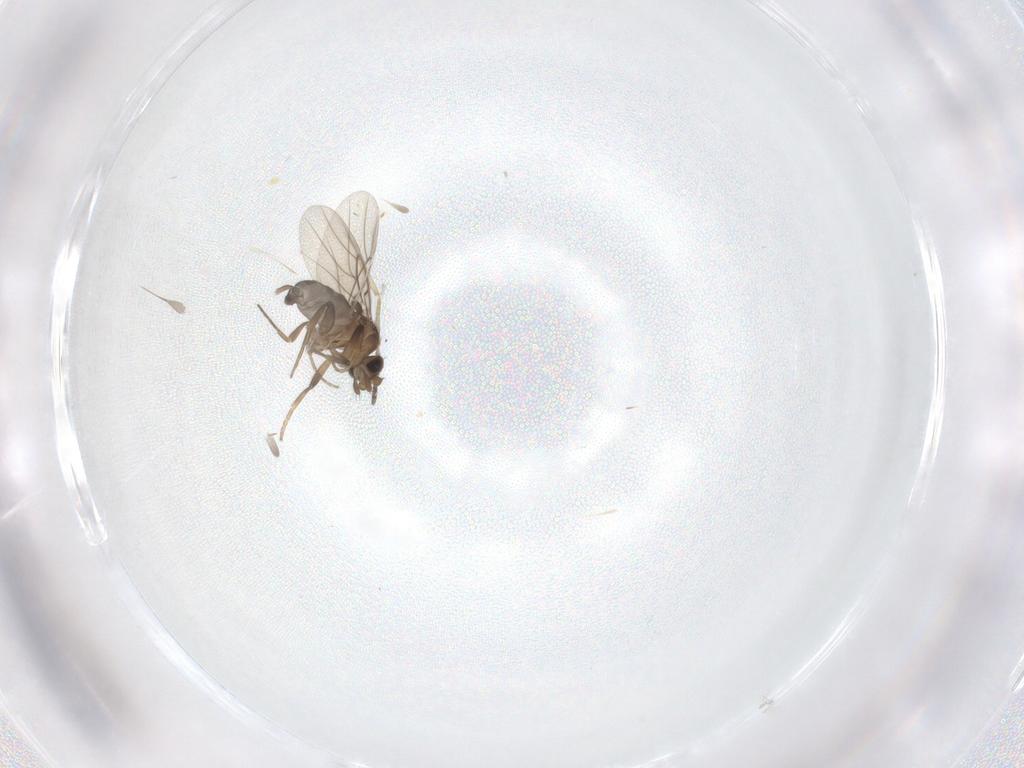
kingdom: Animalia
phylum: Arthropoda
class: Insecta
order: Diptera
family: Phoridae
